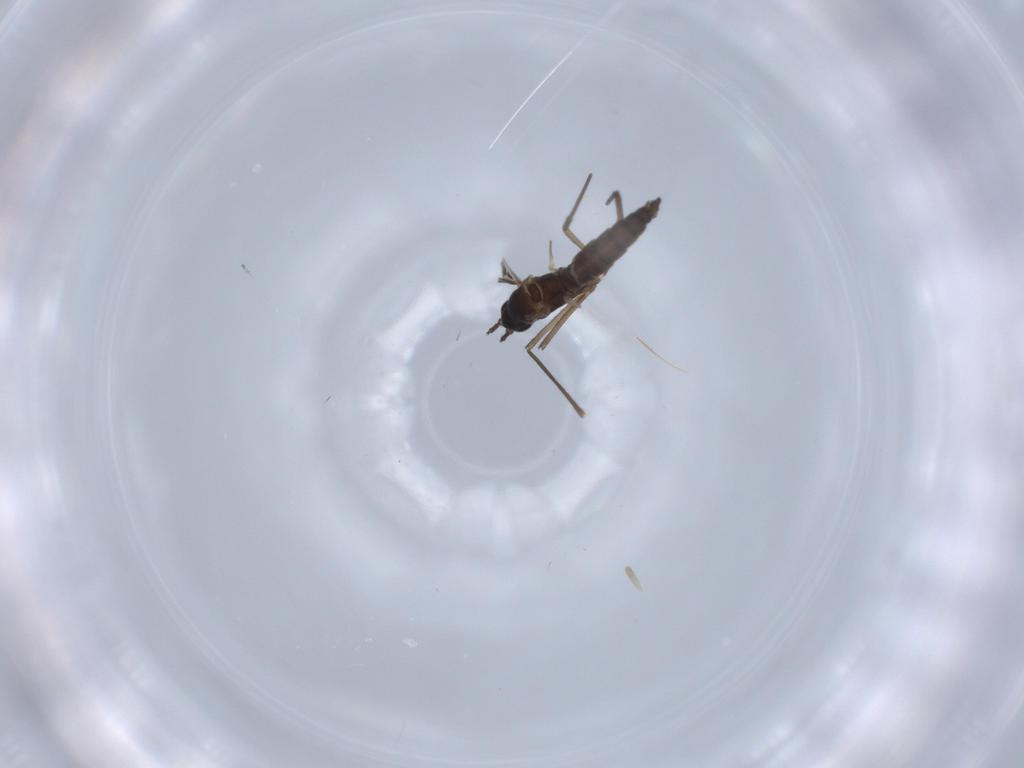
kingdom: Animalia
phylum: Arthropoda
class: Insecta
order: Diptera
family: Sciaridae
